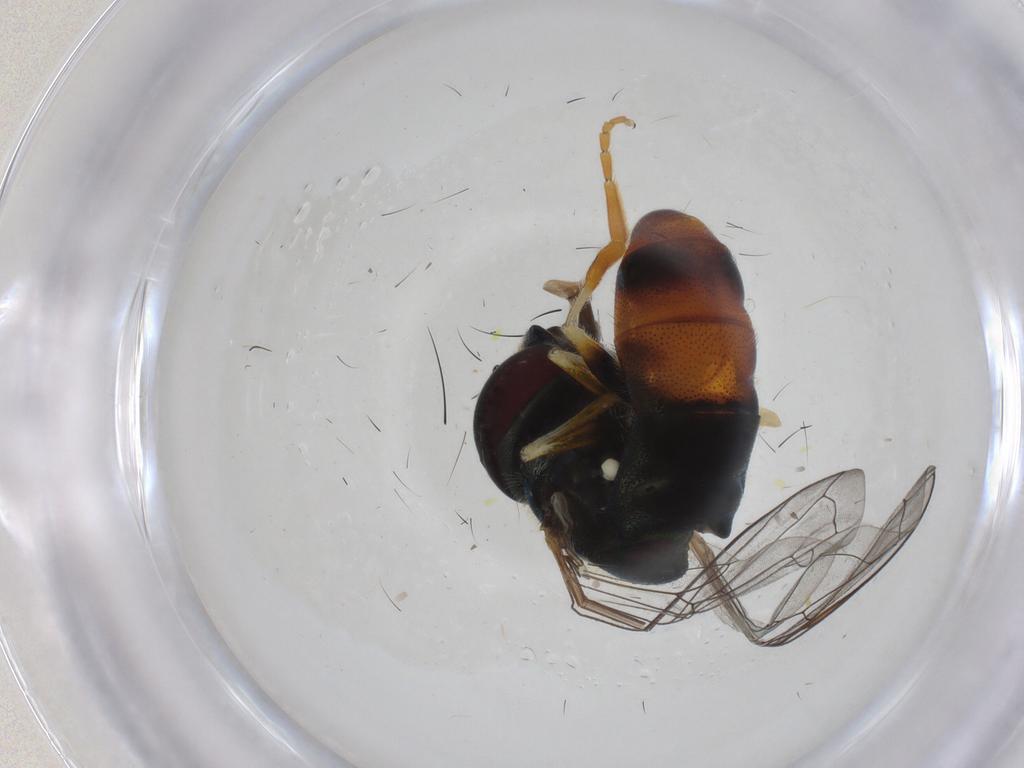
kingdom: Animalia
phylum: Arthropoda
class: Insecta
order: Diptera
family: Syrphidae
